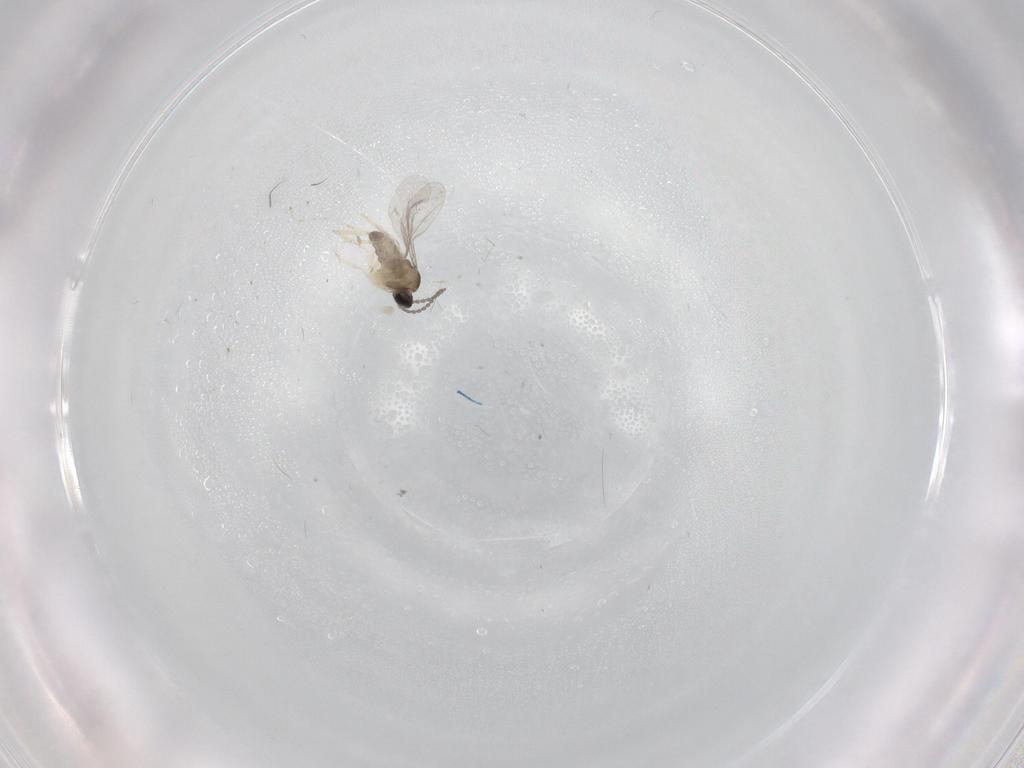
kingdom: Animalia
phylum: Arthropoda
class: Insecta
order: Diptera
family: Cecidomyiidae
